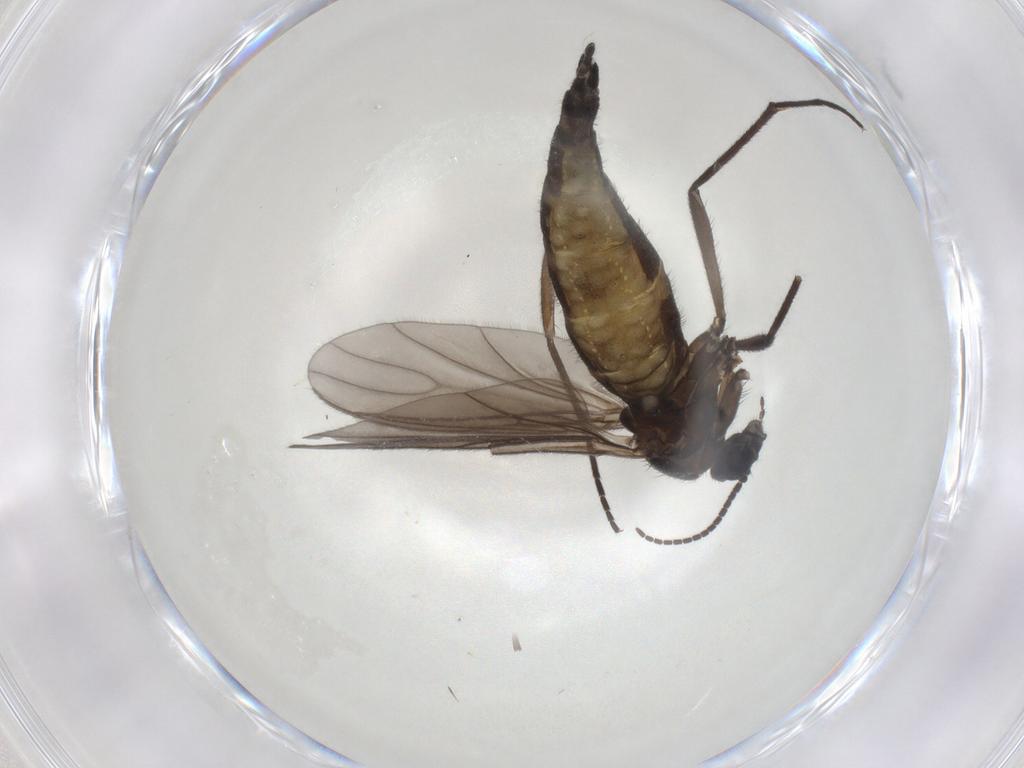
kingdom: Animalia
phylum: Arthropoda
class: Insecta
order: Diptera
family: Sciaridae
